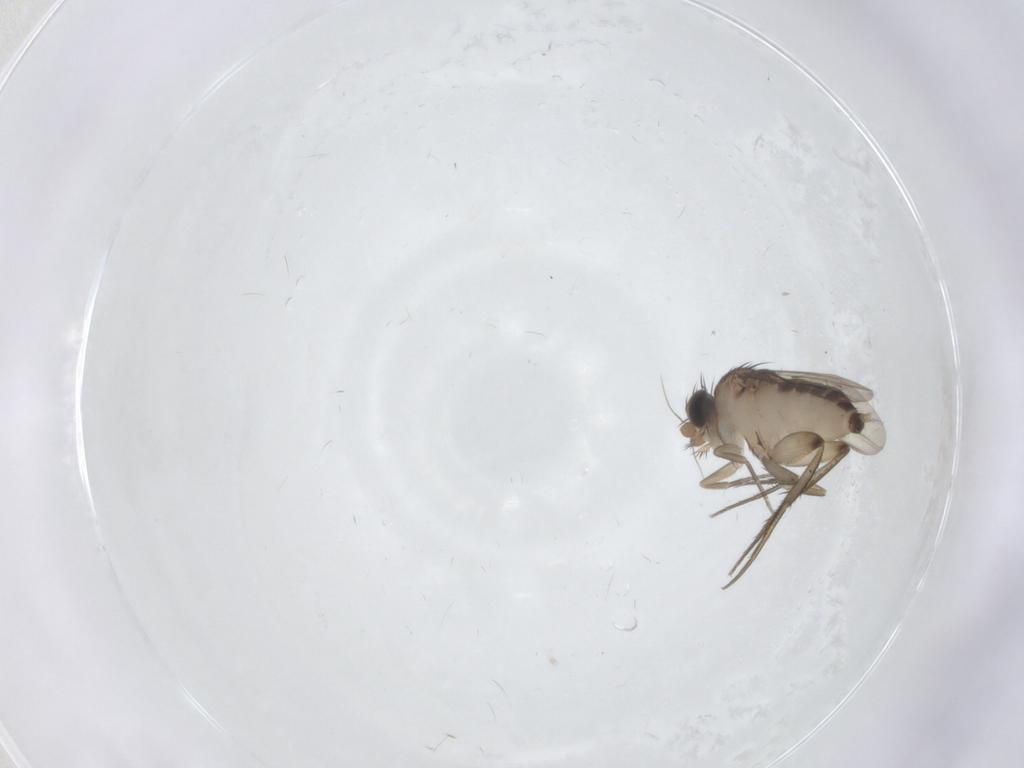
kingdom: Animalia
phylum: Arthropoda
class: Insecta
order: Diptera
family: Phoridae
